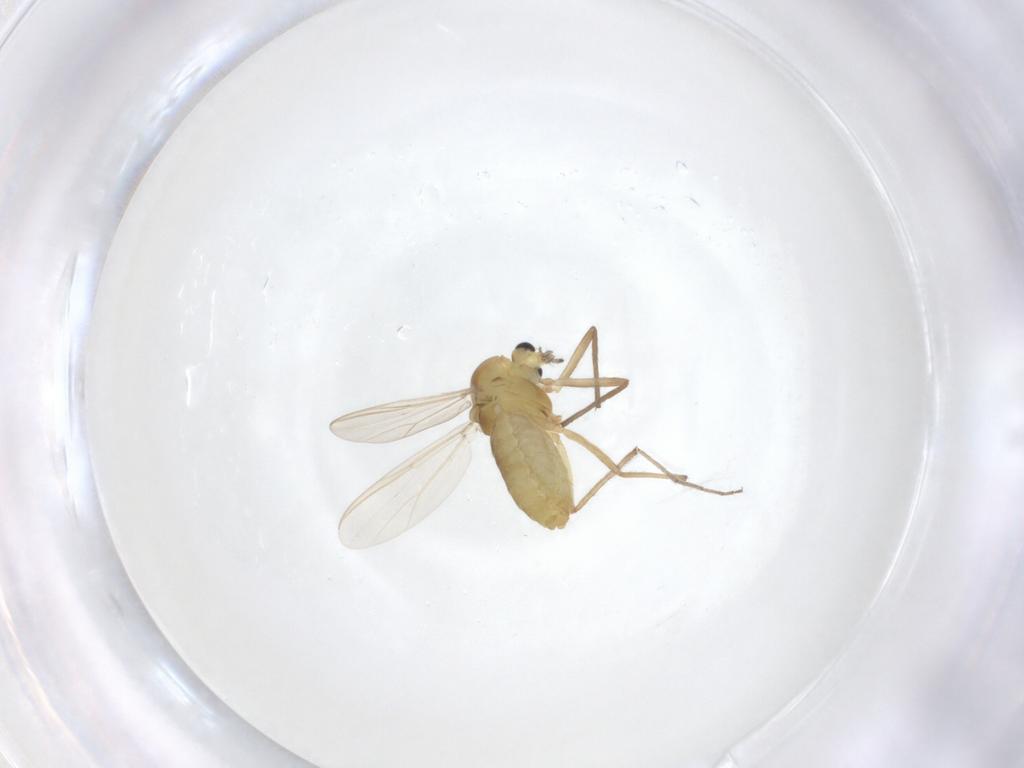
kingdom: Animalia
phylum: Arthropoda
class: Insecta
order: Diptera
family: Chironomidae
